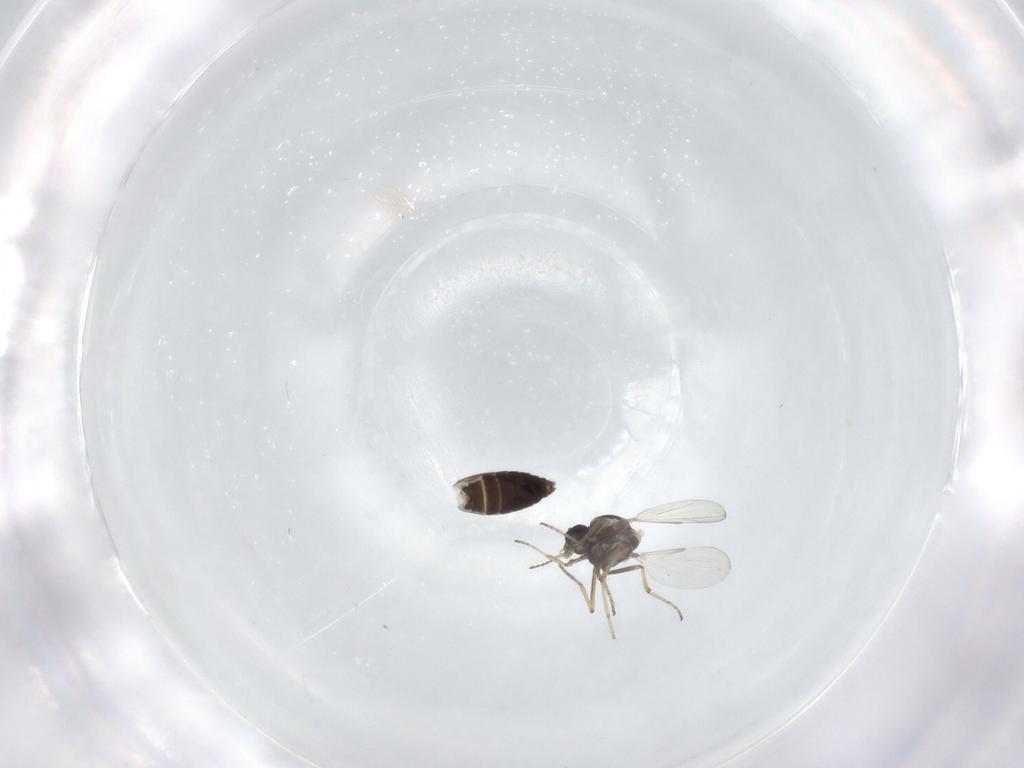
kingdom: Animalia
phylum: Arthropoda
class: Insecta
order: Diptera
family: Ceratopogonidae
